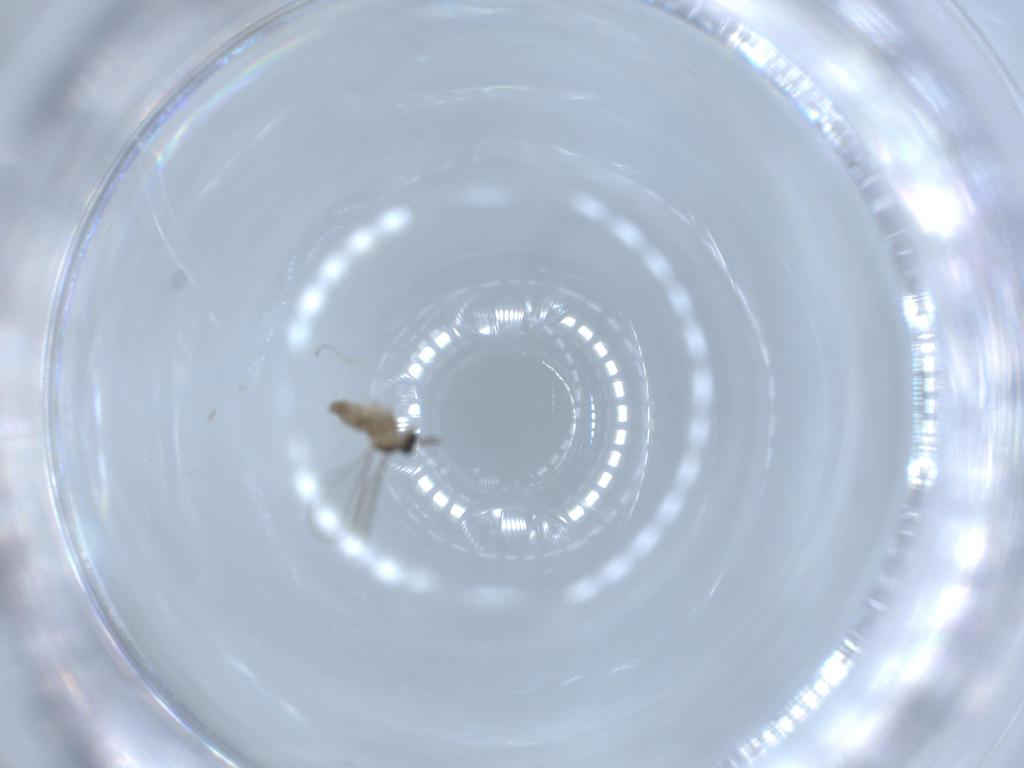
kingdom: Animalia
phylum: Arthropoda
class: Insecta
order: Diptera
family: Cecidomyiidae
